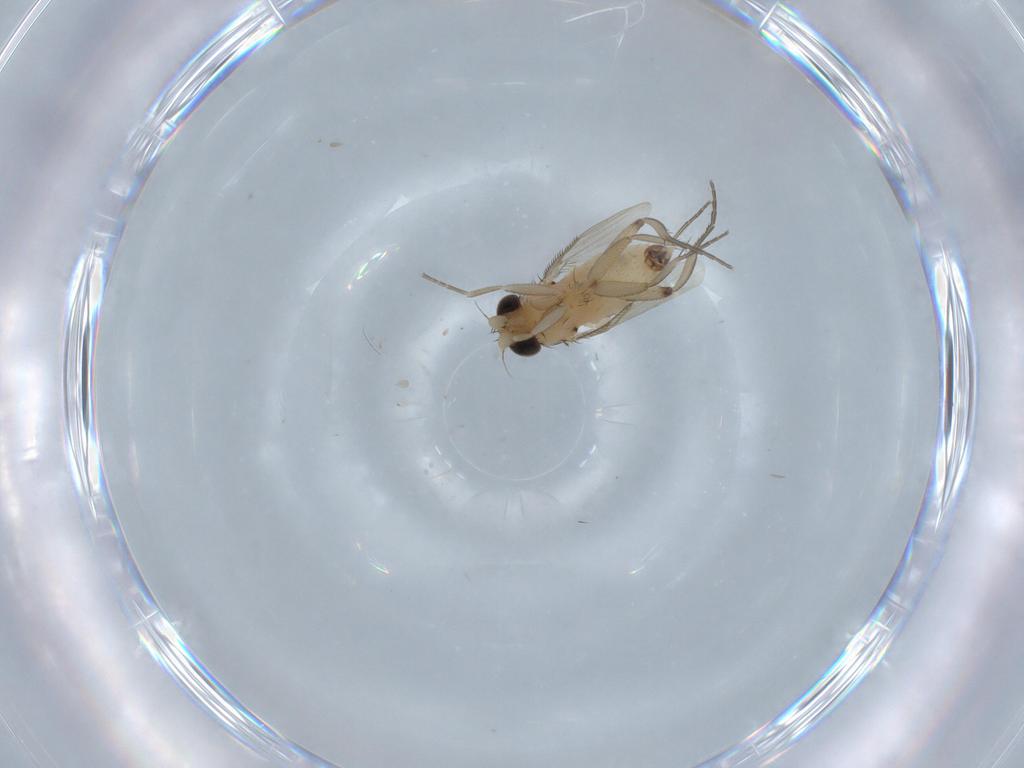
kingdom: Animalia
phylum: Arthropoda
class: Insecta
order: Diptera
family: Phoridae
